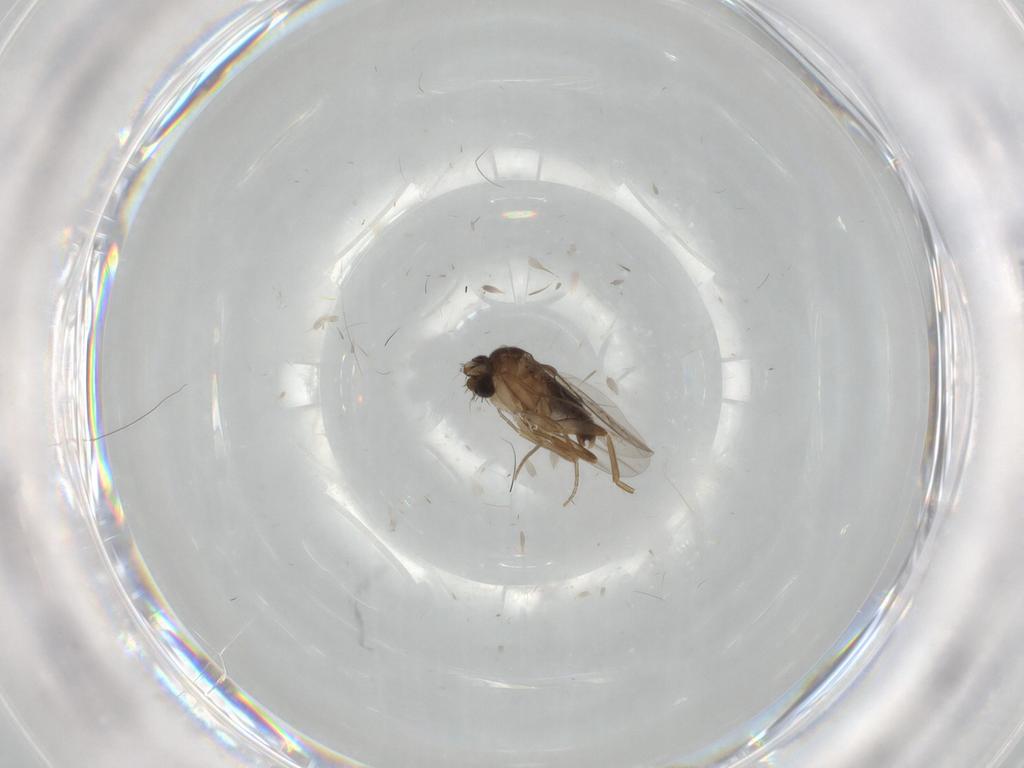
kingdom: Animalia
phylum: Arthropoda
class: Insecta
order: Diptera
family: Phoridae
